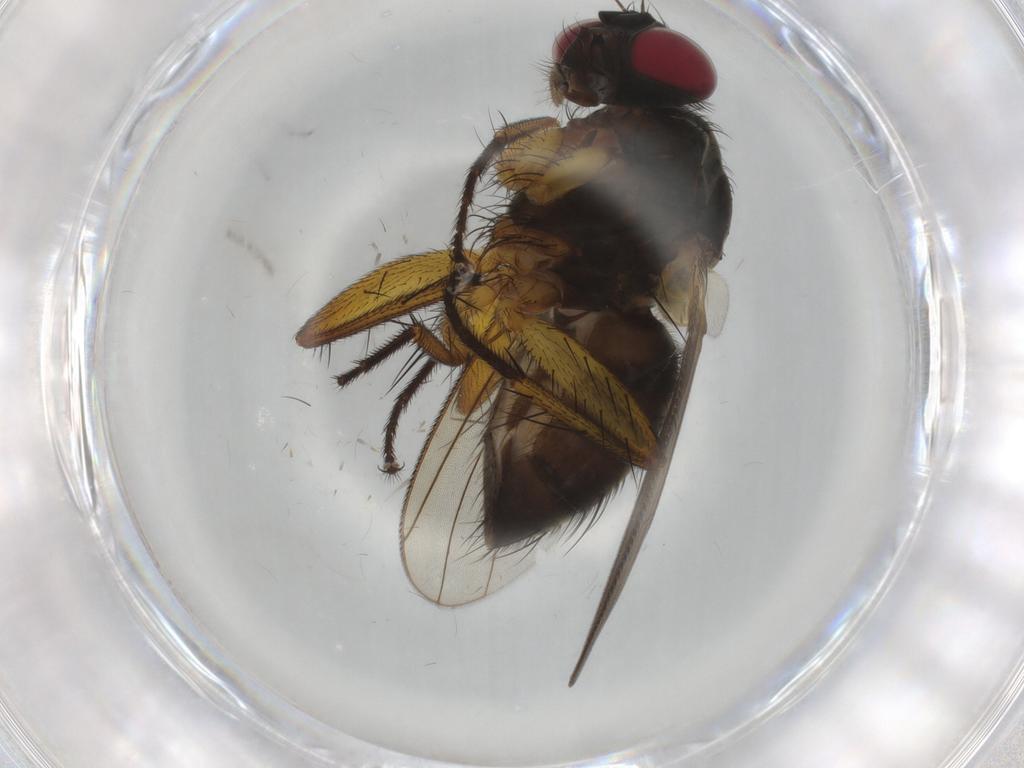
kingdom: Animalia
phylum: Arthropoda
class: Insecta
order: Diptera
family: Muscidae
